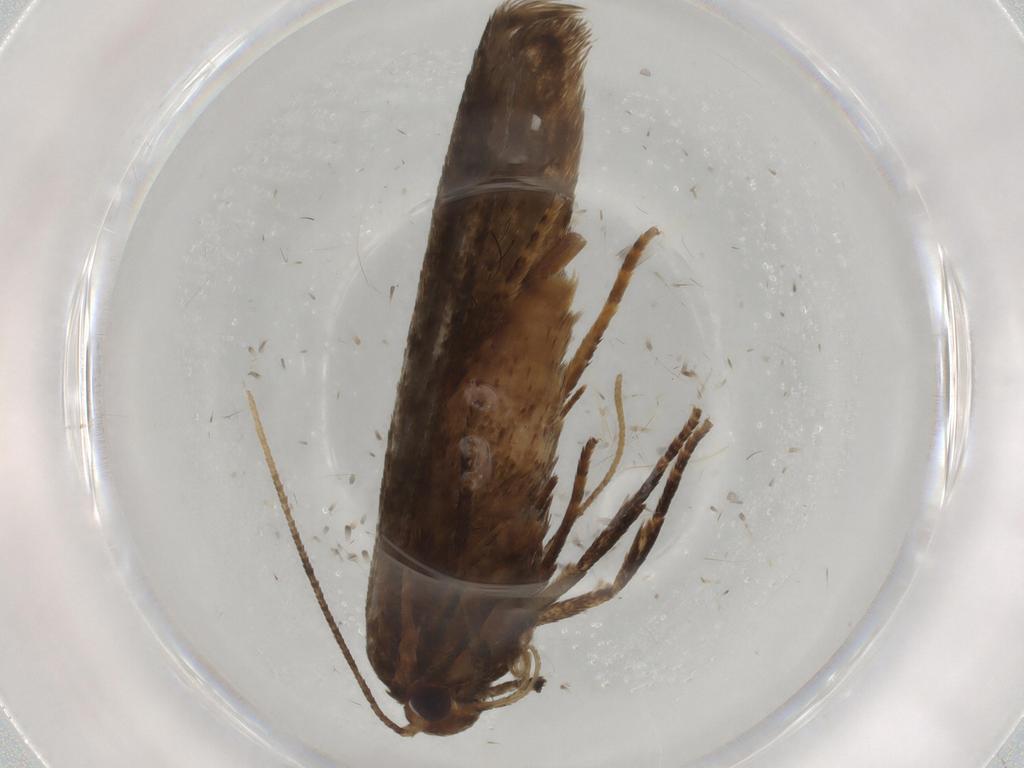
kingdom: Animalia
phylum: Arthropoda
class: Insecta
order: Lepidoptera
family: Blastobasidae
